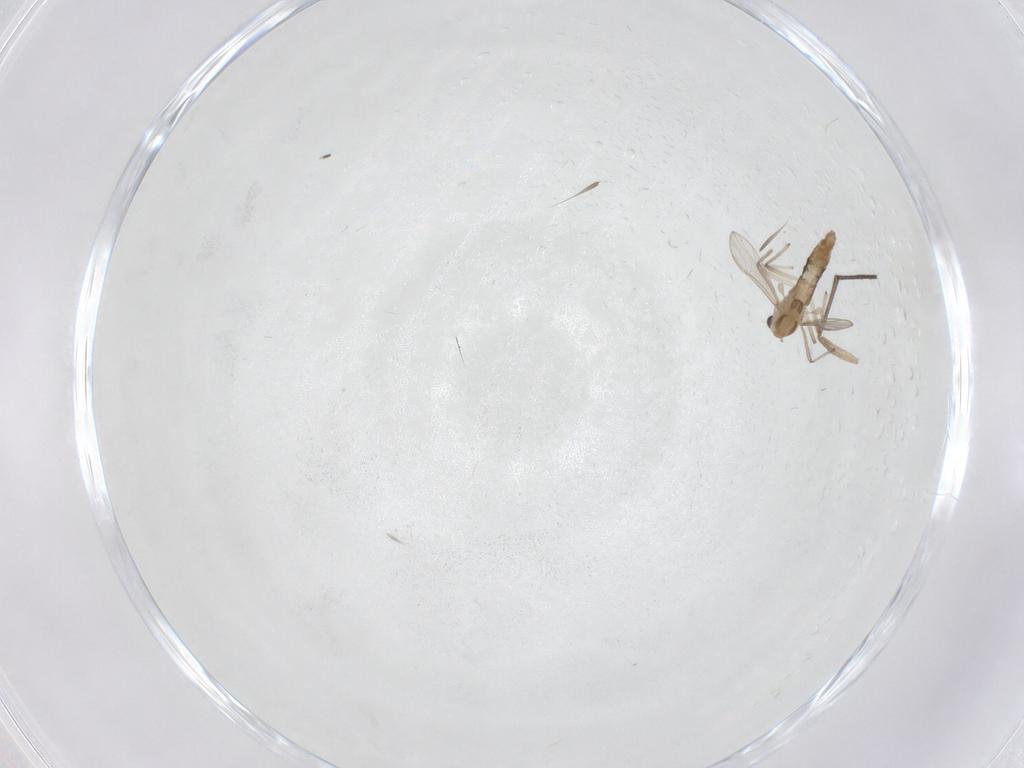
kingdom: Animalia
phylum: Arthropoda
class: Insecta
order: Diptera
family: Chironomidae
